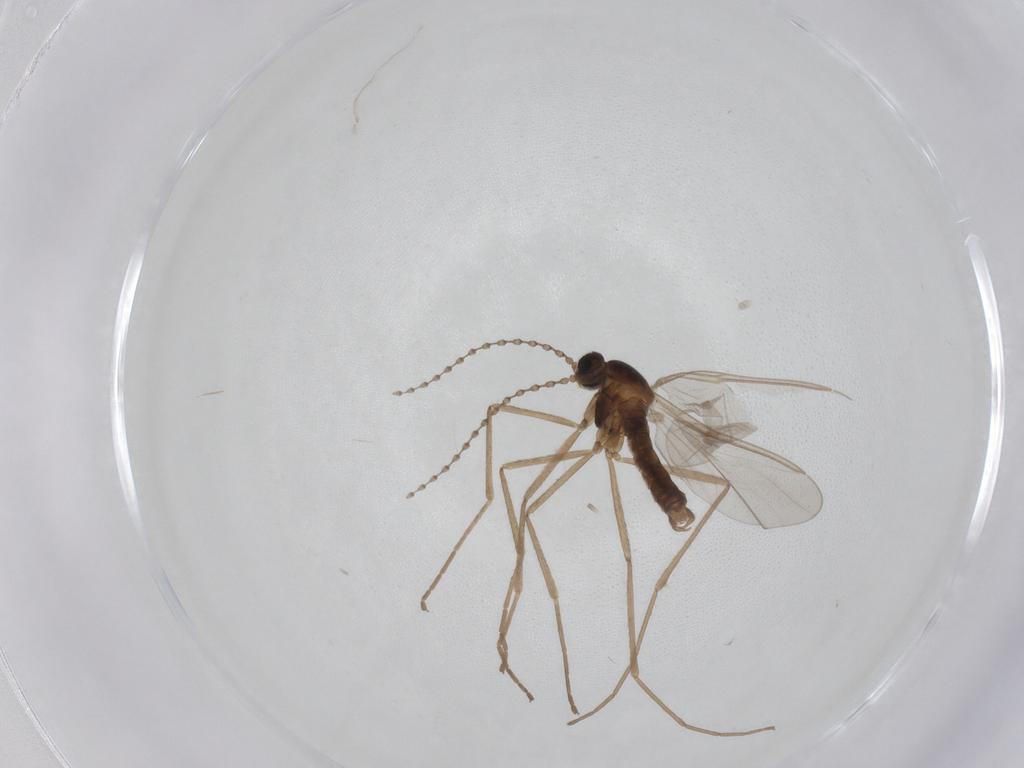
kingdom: Animalia
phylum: Arthropoda
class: Insecta
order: Diptera
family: Cecidomyiidae
